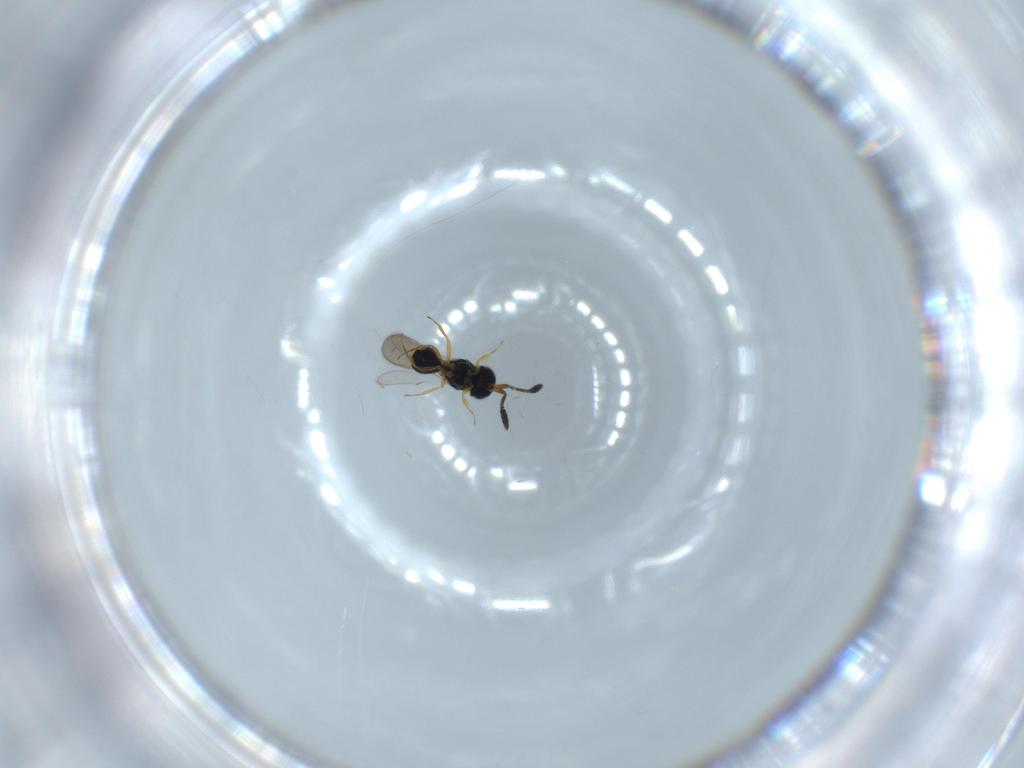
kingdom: Animalia
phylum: Arthropoda
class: Insecta
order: Hymenoptera
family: Scelionidae
